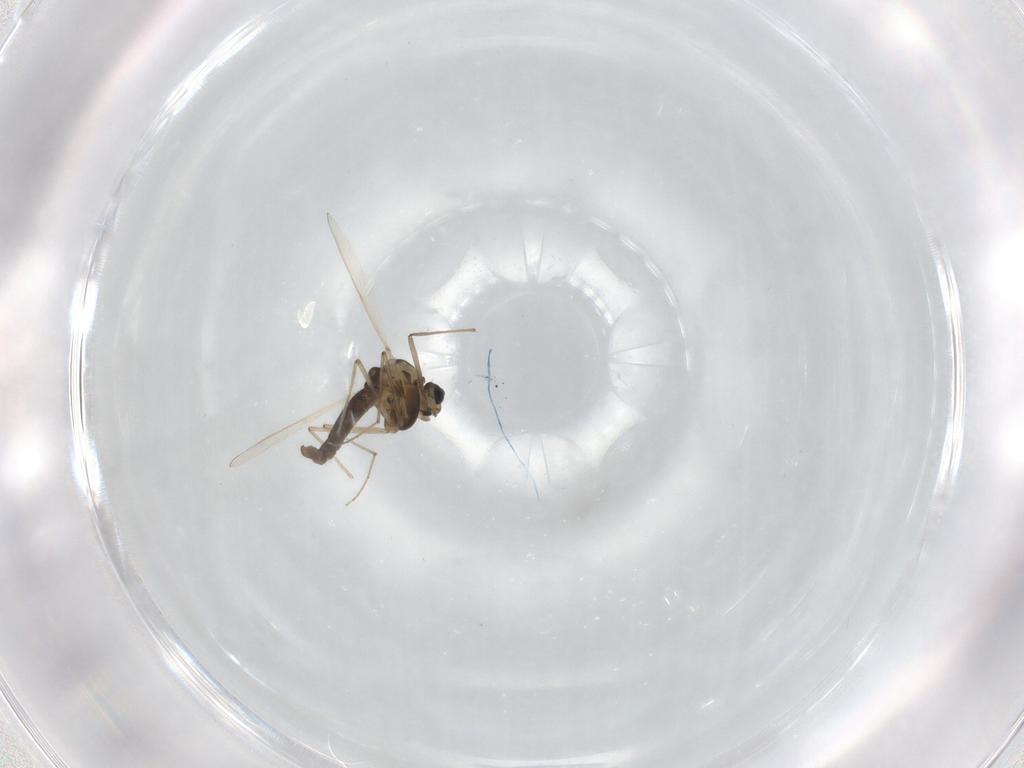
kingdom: Animalia
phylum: Arthropoda
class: Insecta
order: Diptera
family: Chironomidae
